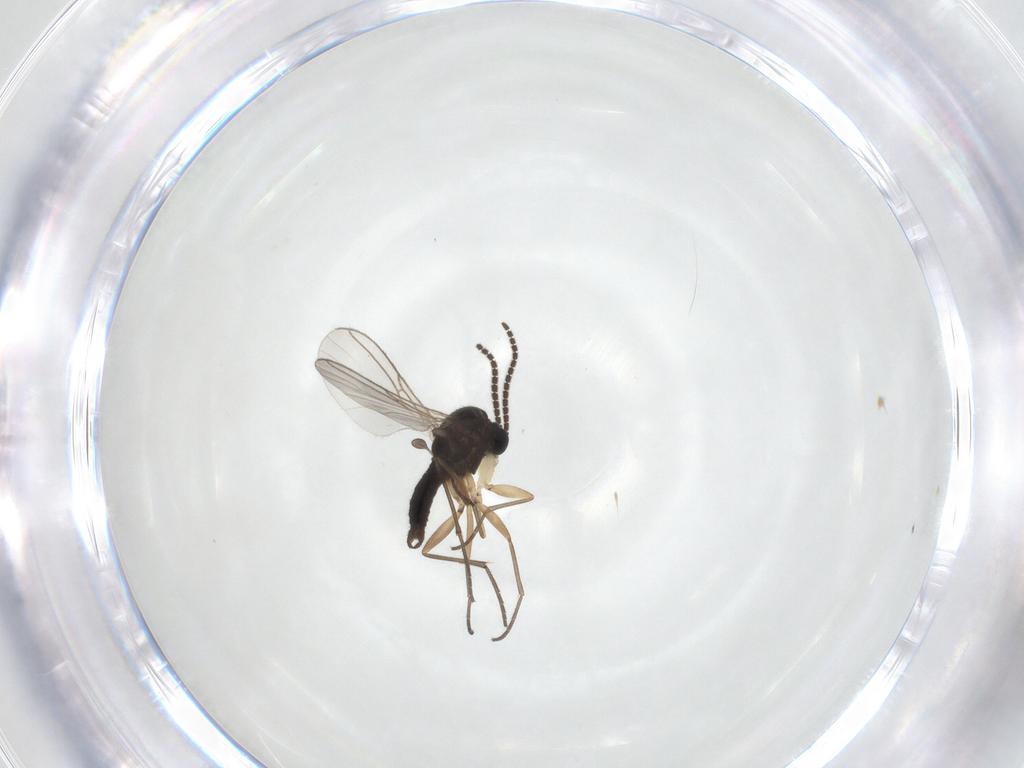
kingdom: Animalia
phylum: Arthropoda
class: Insecta
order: Diptera
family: Sciaridae
